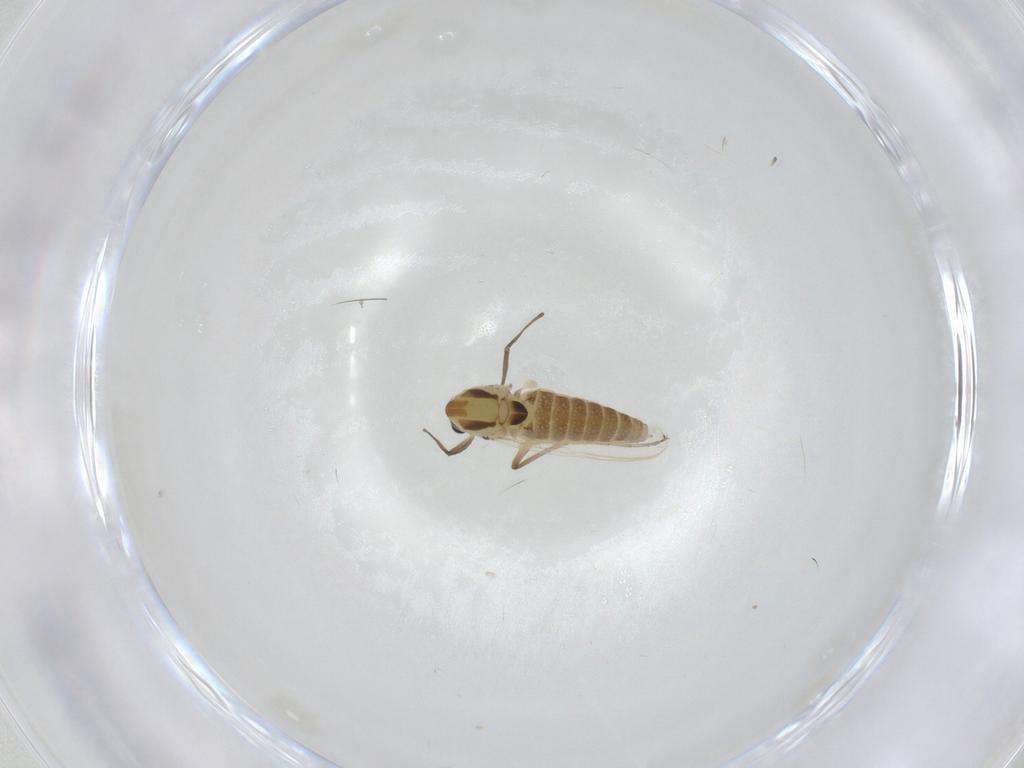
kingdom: Animalia
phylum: Arthropoda
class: Insecta
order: Diptera
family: Chironomidae
